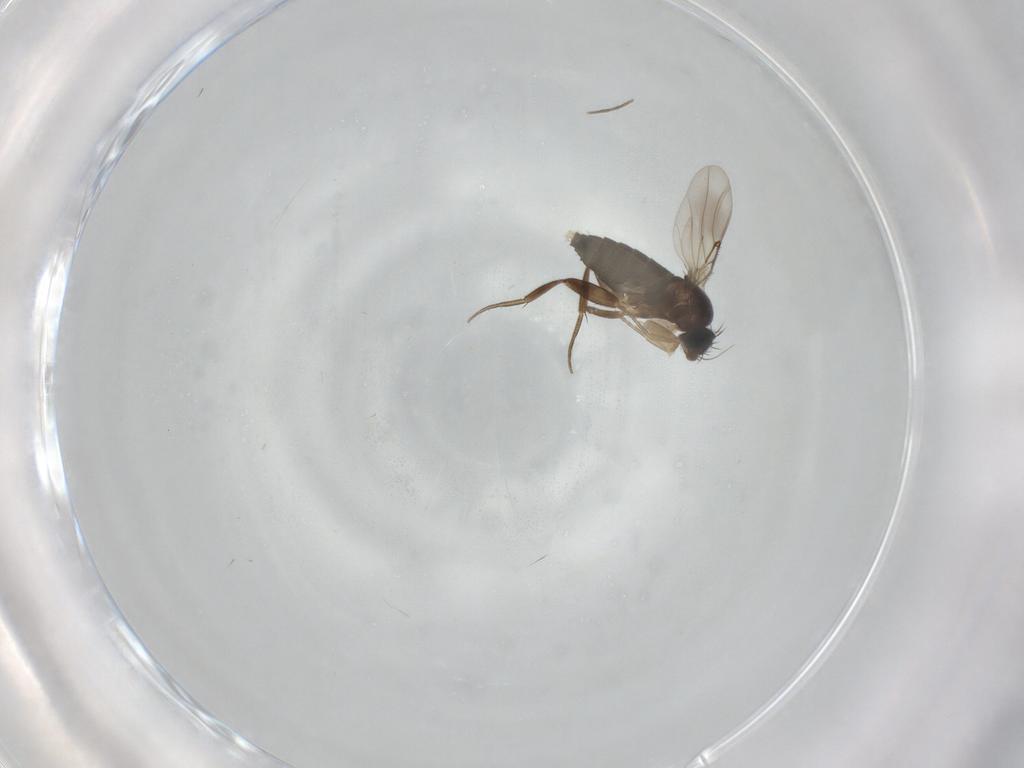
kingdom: Animalia
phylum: Arthropoda
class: Insecta
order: Diptera
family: Phoridae
